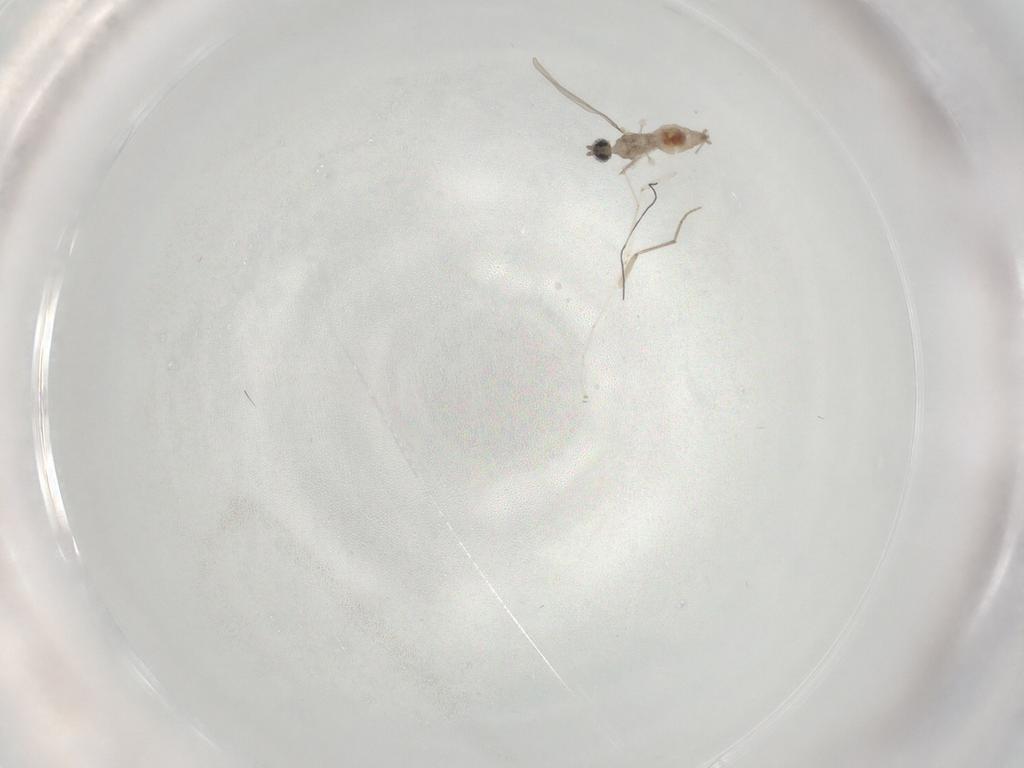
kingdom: Animalia
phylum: Arthropoda
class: Insecta
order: Diptera
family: Cecidomyiidae
